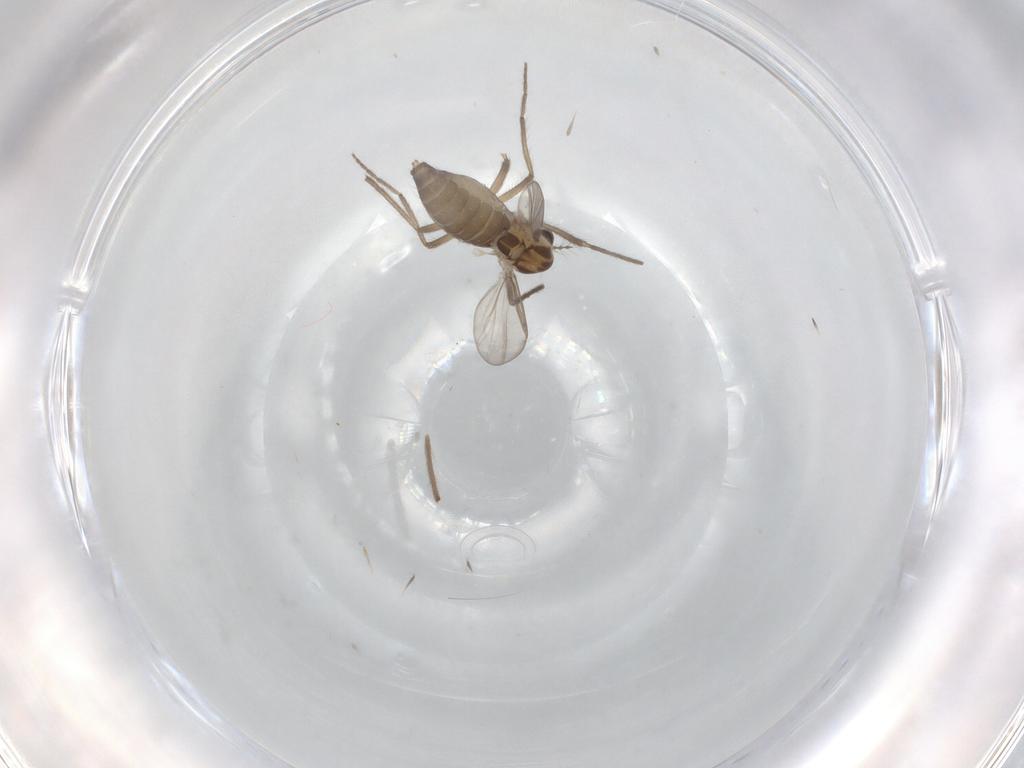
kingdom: Animalia
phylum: Arthropoda
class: Insecta
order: Diptera
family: Chironomidae
